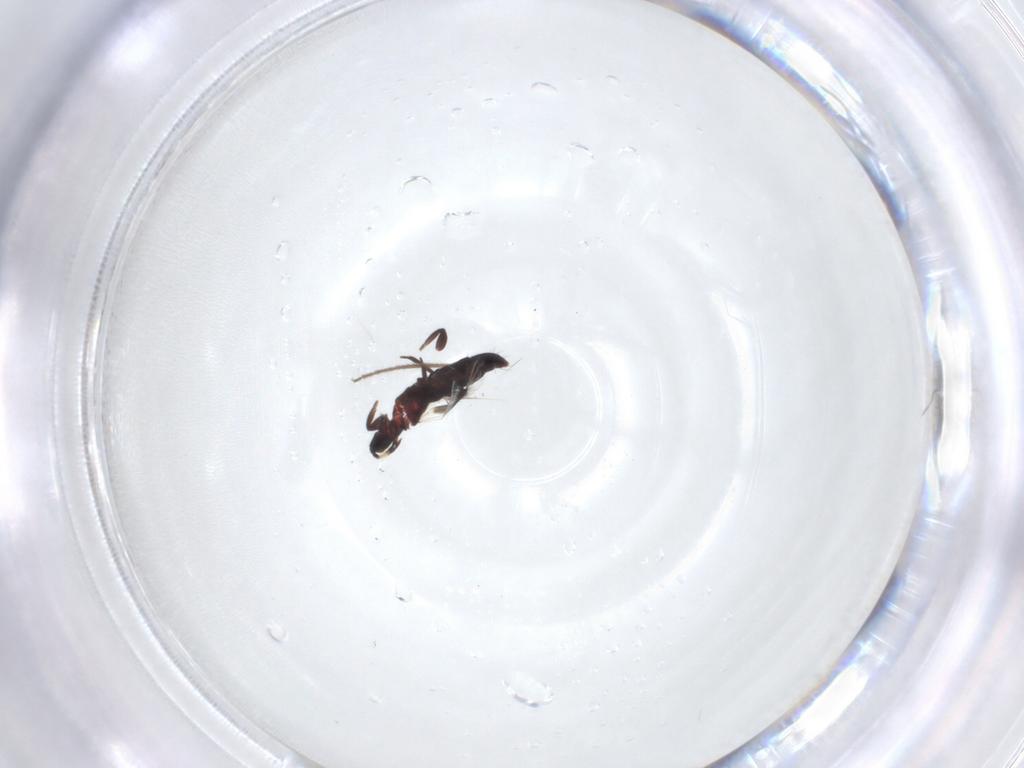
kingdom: Animalia
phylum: Arthropoda
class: Insecta
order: Thysanoptera
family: Aeolothripidae
